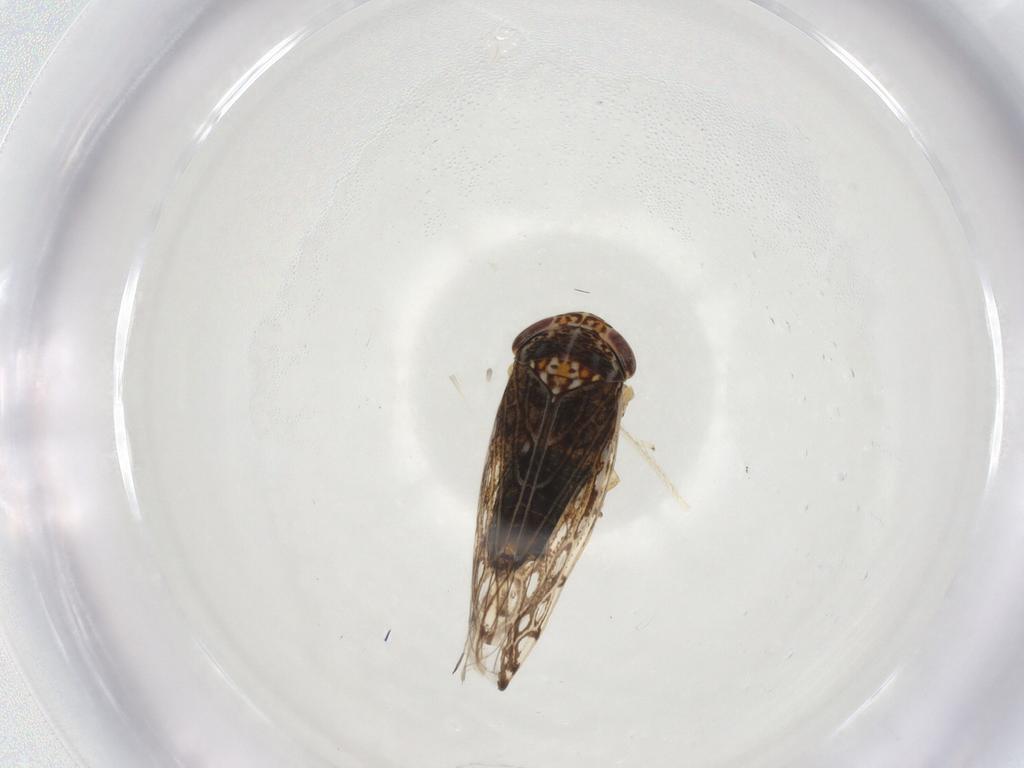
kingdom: Animalia
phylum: Arthropoda
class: Insecta
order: Hemiptera
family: Cicadellidae
